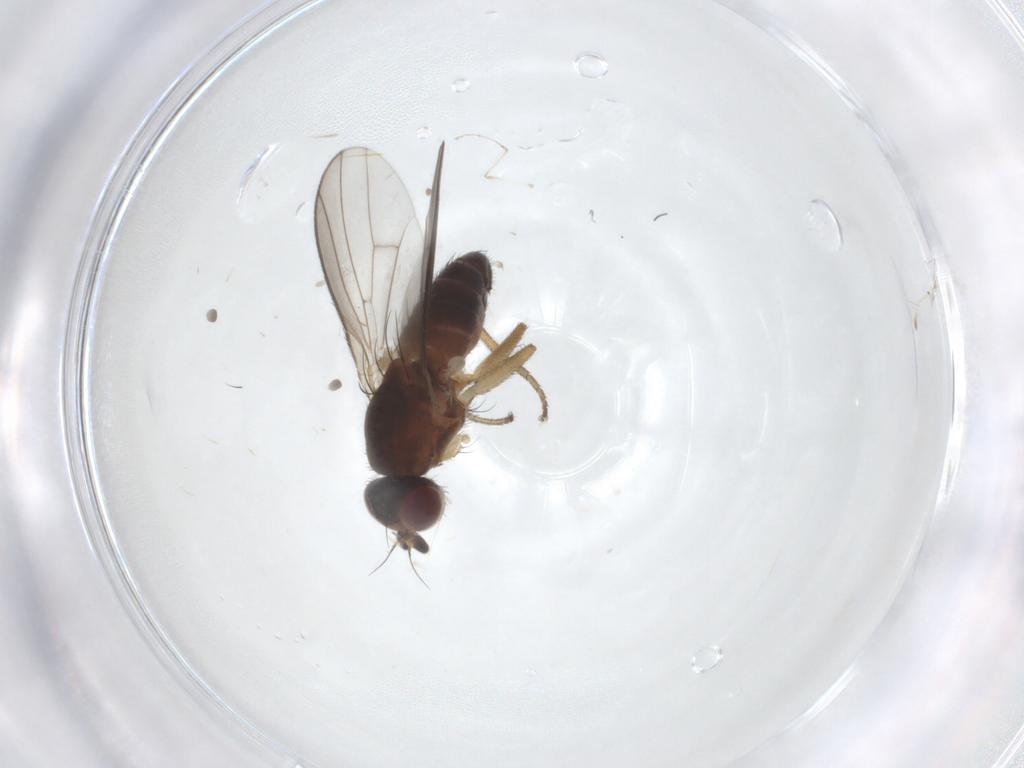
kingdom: Animalia
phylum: Arthropoda
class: Insecta
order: Diptera
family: Heleomyzidae
